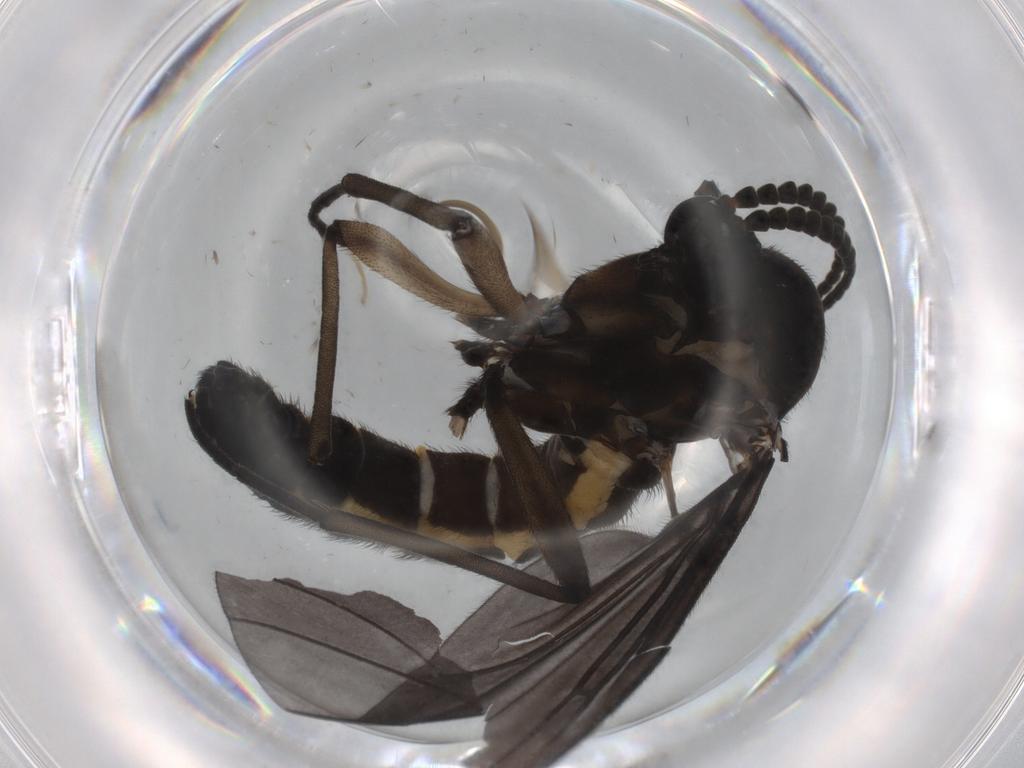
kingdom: Animalia
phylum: Arthropoda
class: Insecta
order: Diptera
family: Sciaridae
